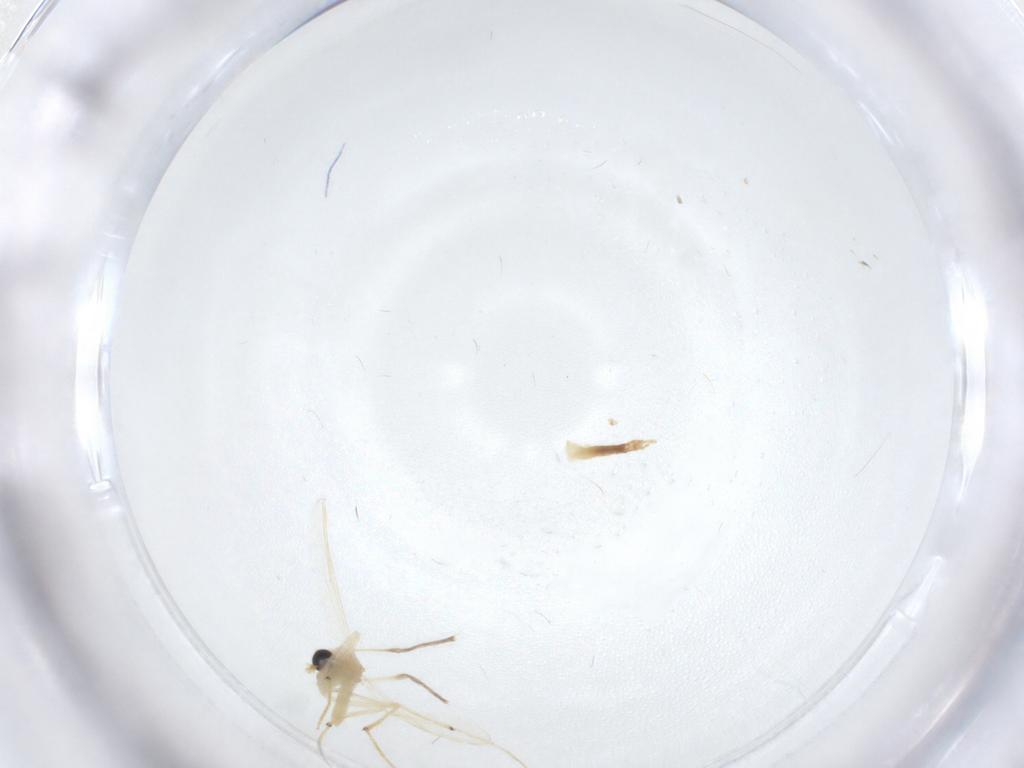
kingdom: Animalia
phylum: Arthropoda
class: Insecta
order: Diptera
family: Chironomidae
